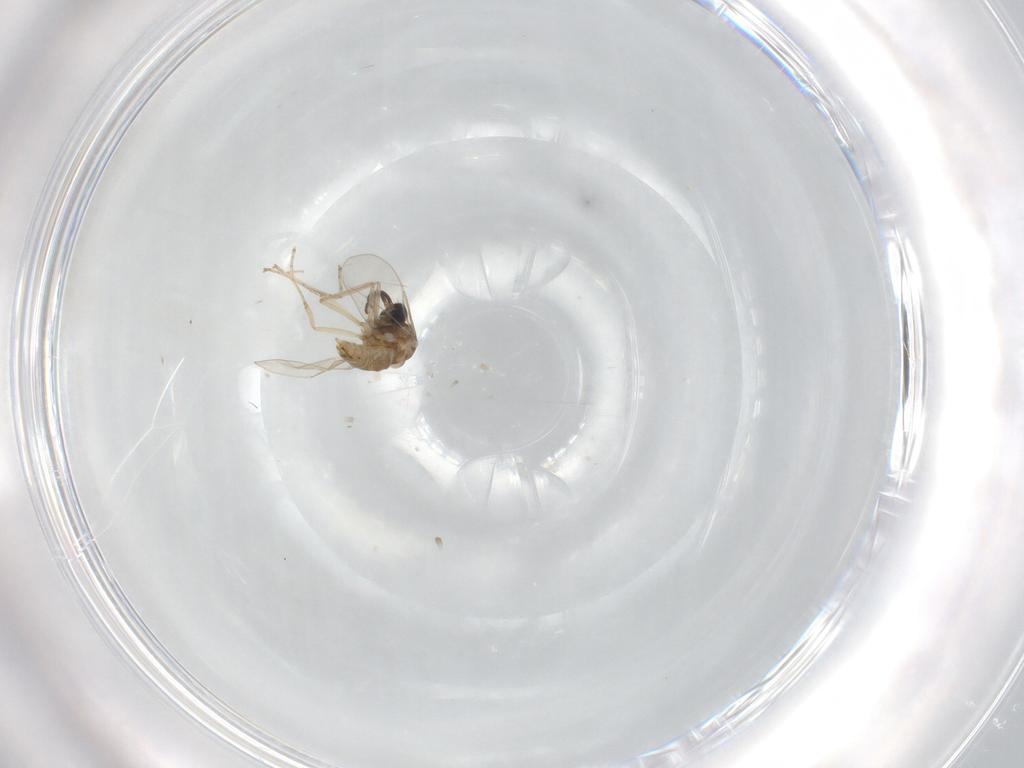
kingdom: Animalia
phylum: Arthropoda
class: Insecta
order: Diptera
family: Cecidomyiidae
